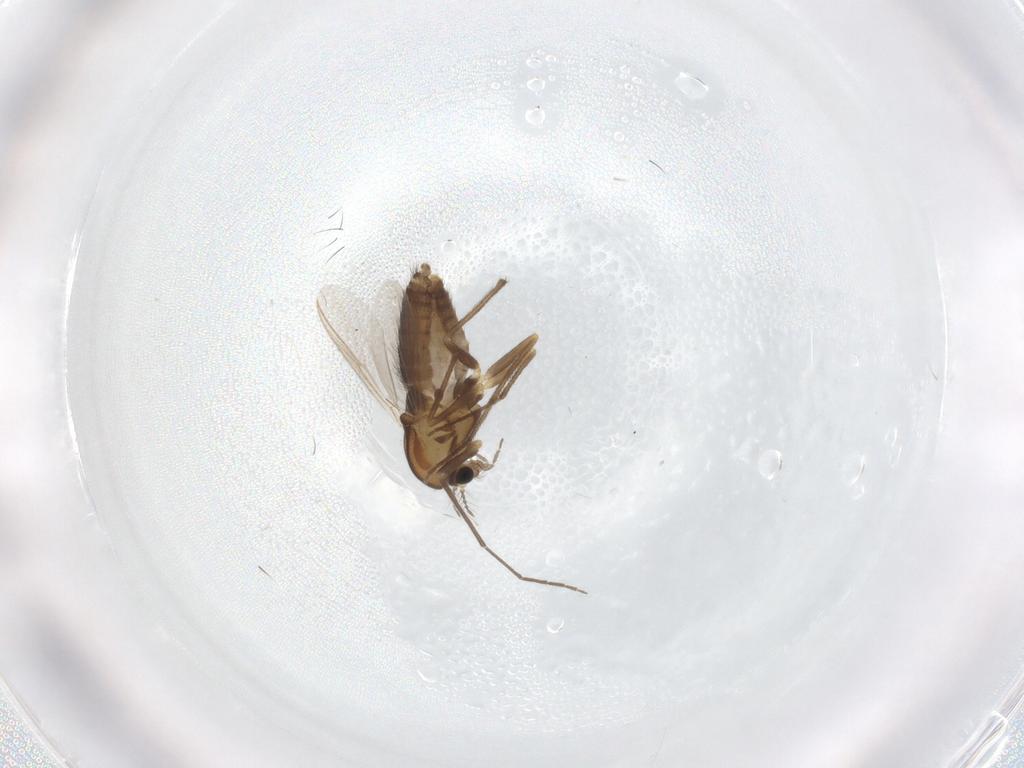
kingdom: Animalia
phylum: Arthropoda
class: Insecta
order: Diptera
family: Chironomidae
